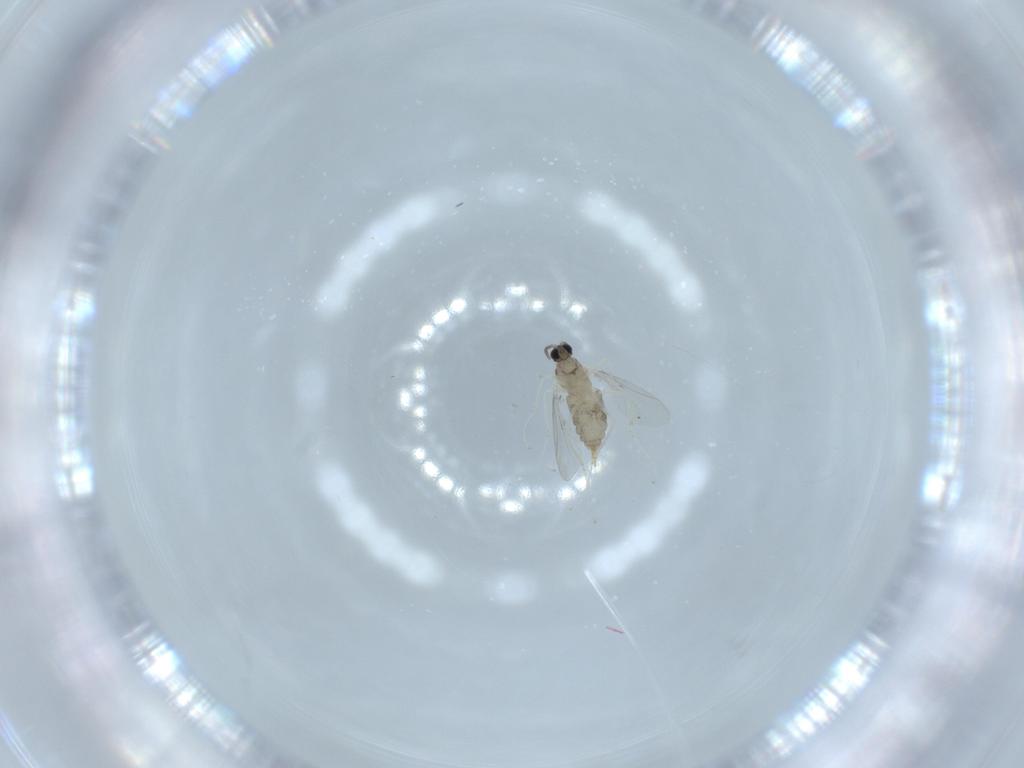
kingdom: Animalia
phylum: Arthropoda
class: Insecta
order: Diptera
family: Cecidomyiidae
